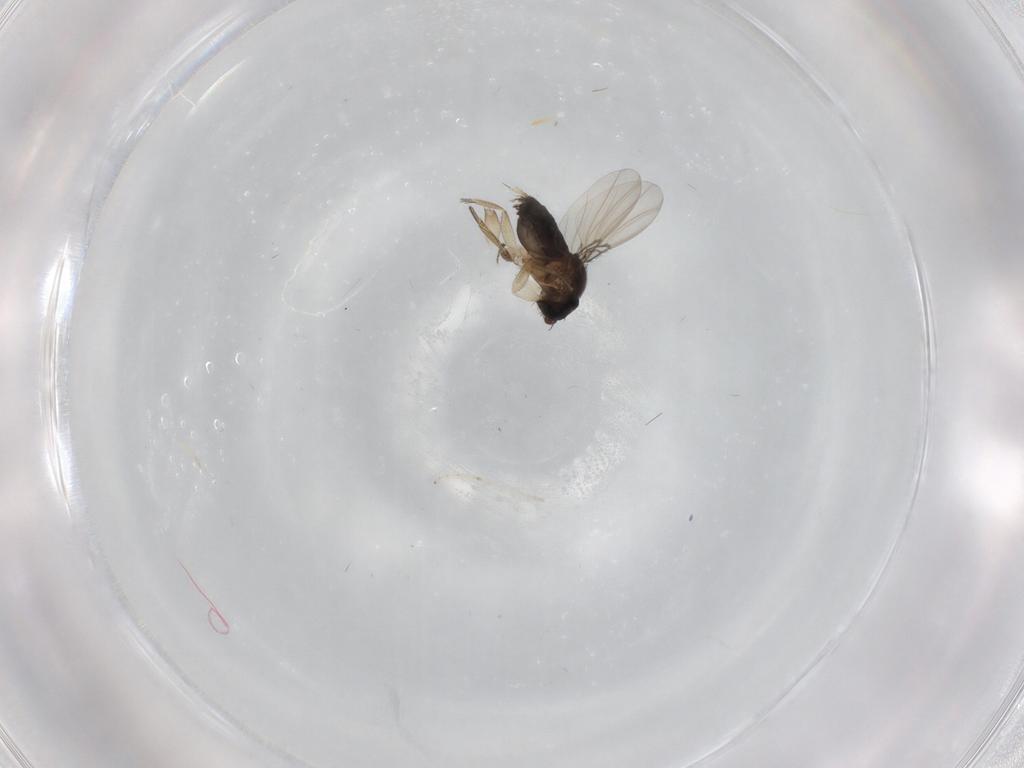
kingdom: Animalia
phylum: Arthropoda
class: Insecta
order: Diptera
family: Phoridae
